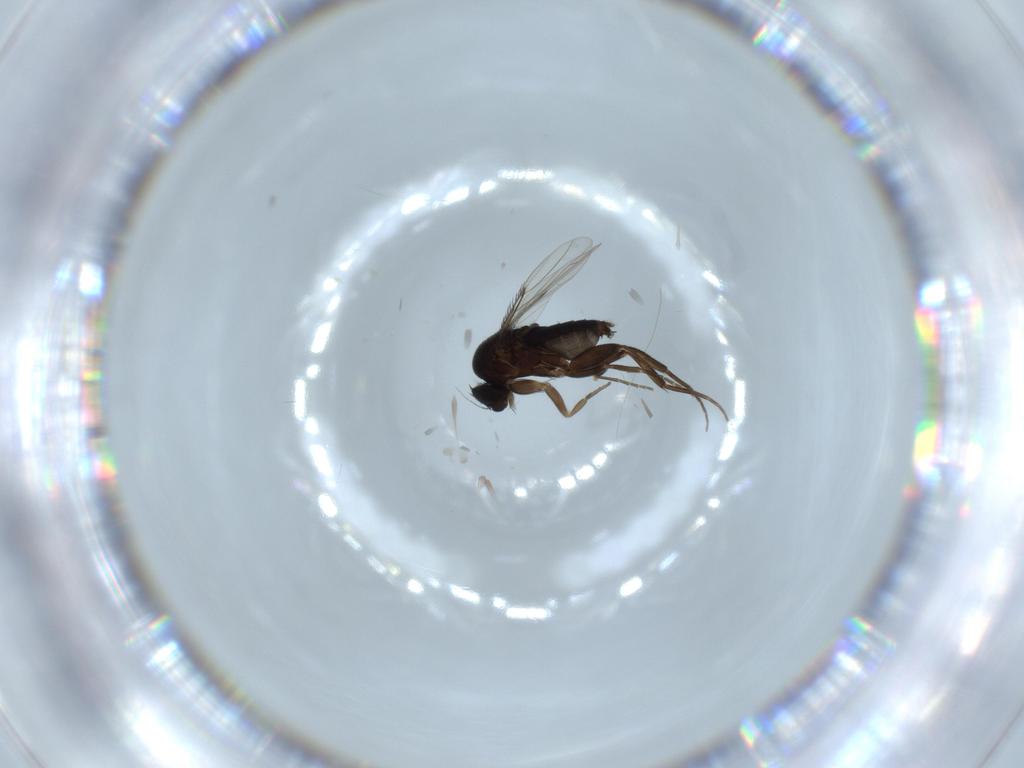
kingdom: Animalia
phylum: Arthropoda
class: Insecta
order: Diptera
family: Phoridae
